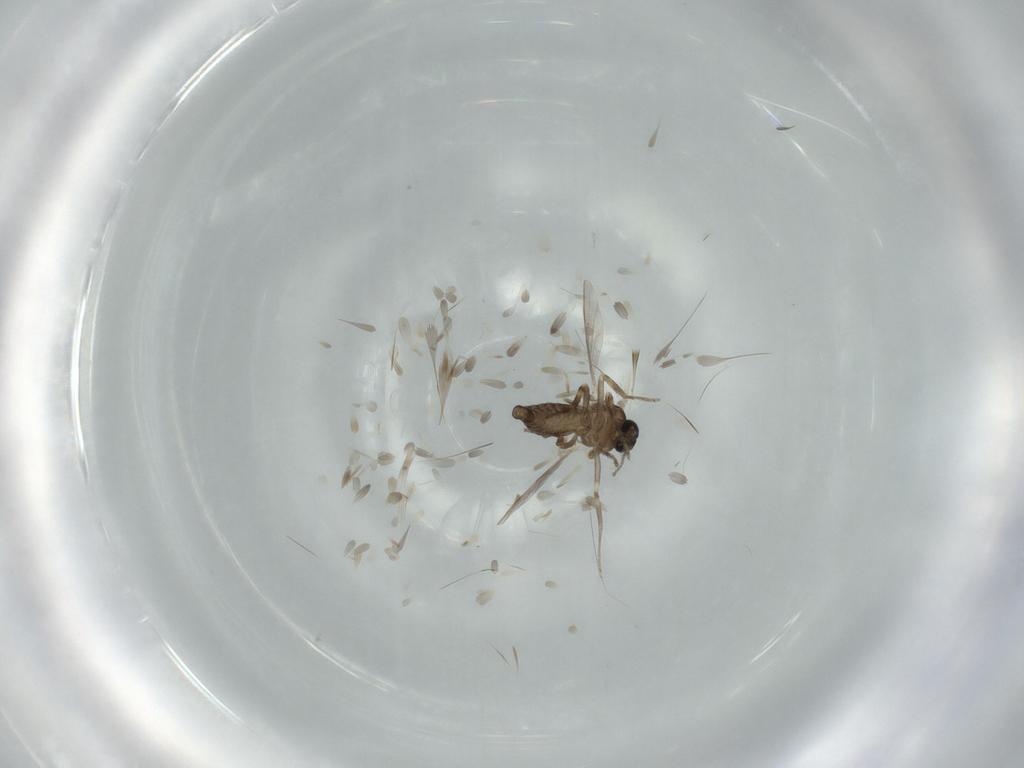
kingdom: Animalia
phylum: Arthropoda
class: Insecta
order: Diptera
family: Ceratopogonidae
